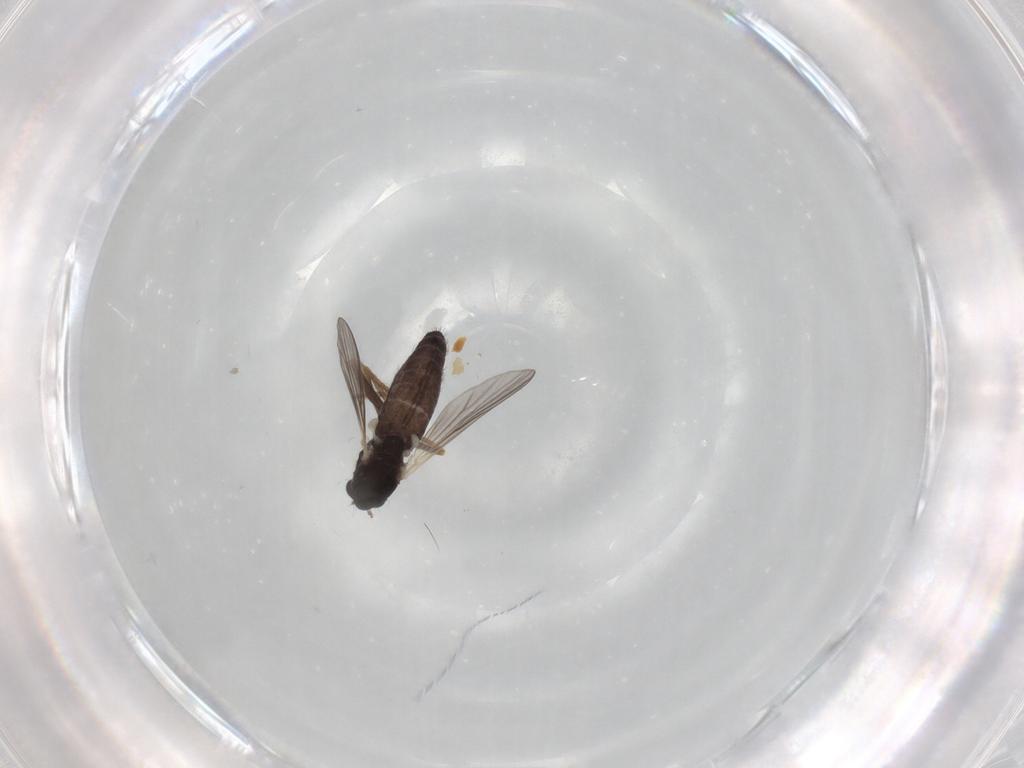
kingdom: Animalia
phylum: Arthropoda
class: Insecta
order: Diptera
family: Chironomidae
